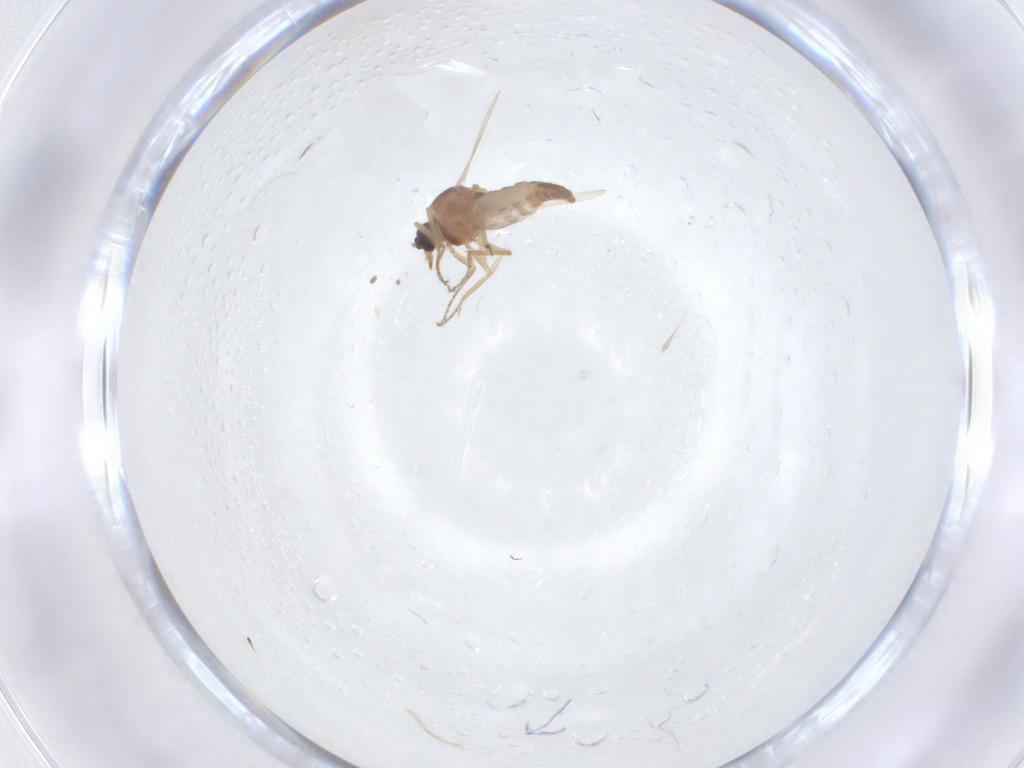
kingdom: Animalia
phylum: Arthropoda
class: Insecta
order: Diptera
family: Ceratopogonidae
